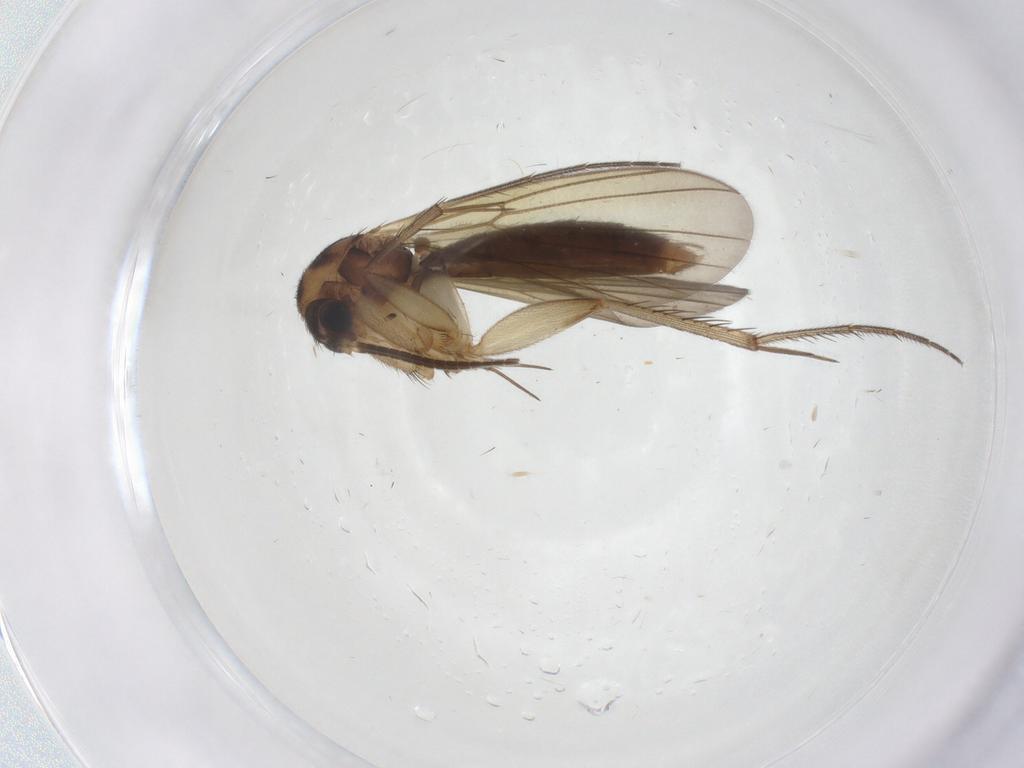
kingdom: Animalia
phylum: Arthropoda
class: Insecta
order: Diptera
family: Mycetophilidae
